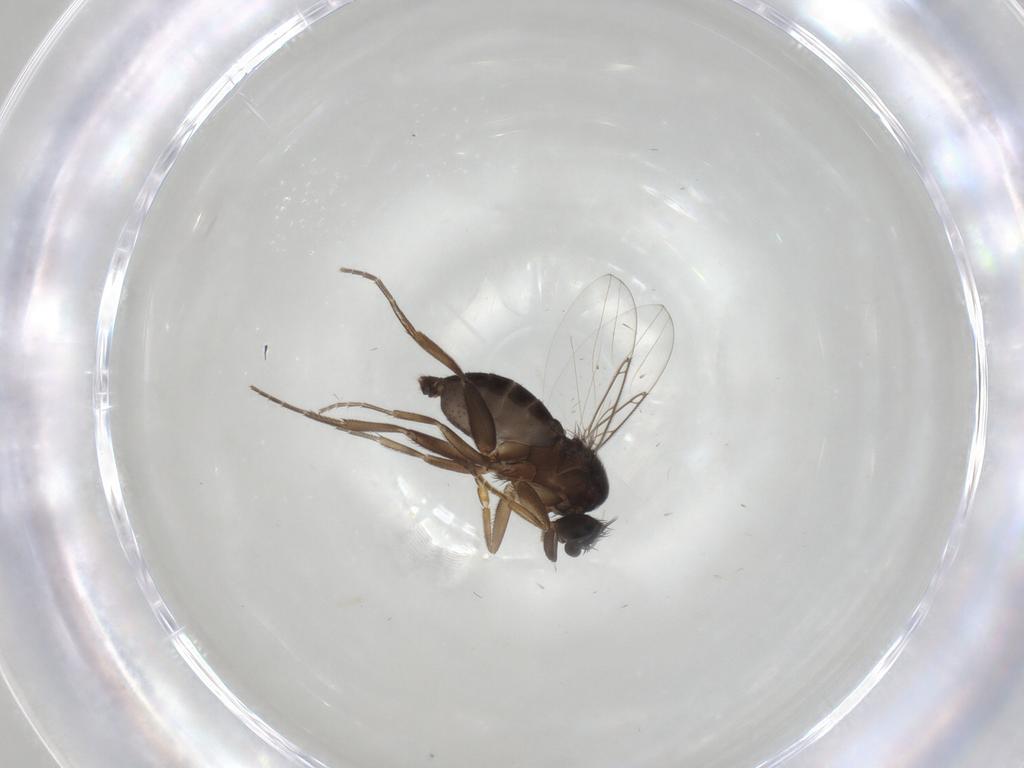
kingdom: Animalia
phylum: Arthropoda
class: Insecta
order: Diptera
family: Phoridae
